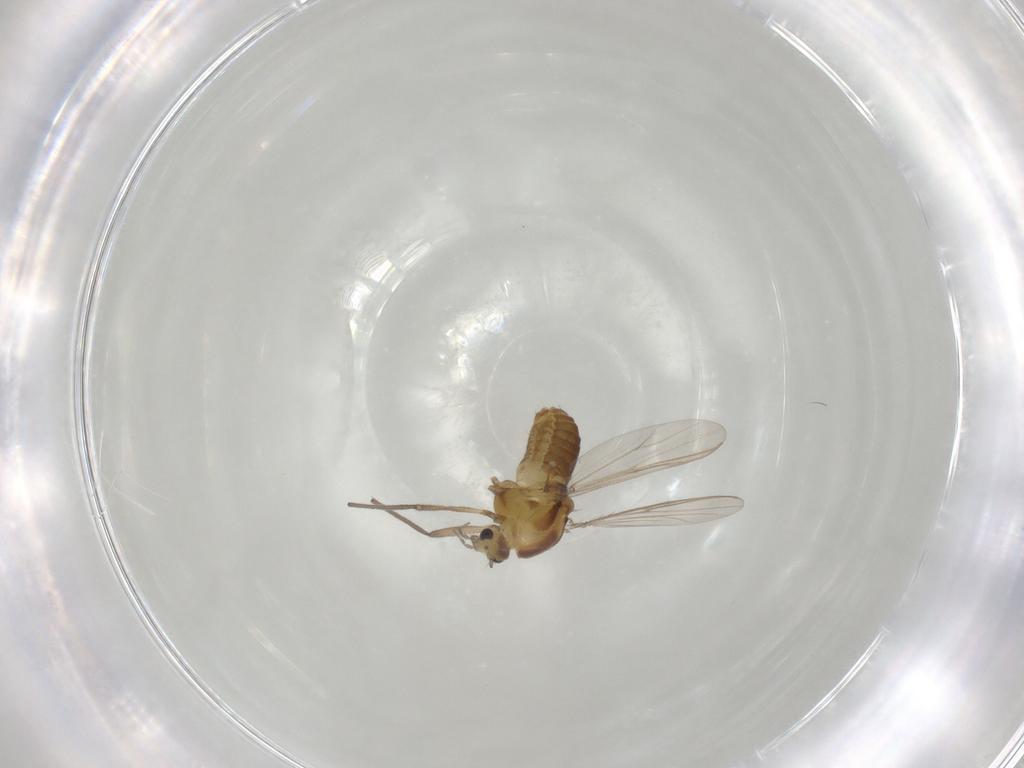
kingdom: Animalia
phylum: Arthropoda
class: Insecta
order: Diptera
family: Chironomidae
